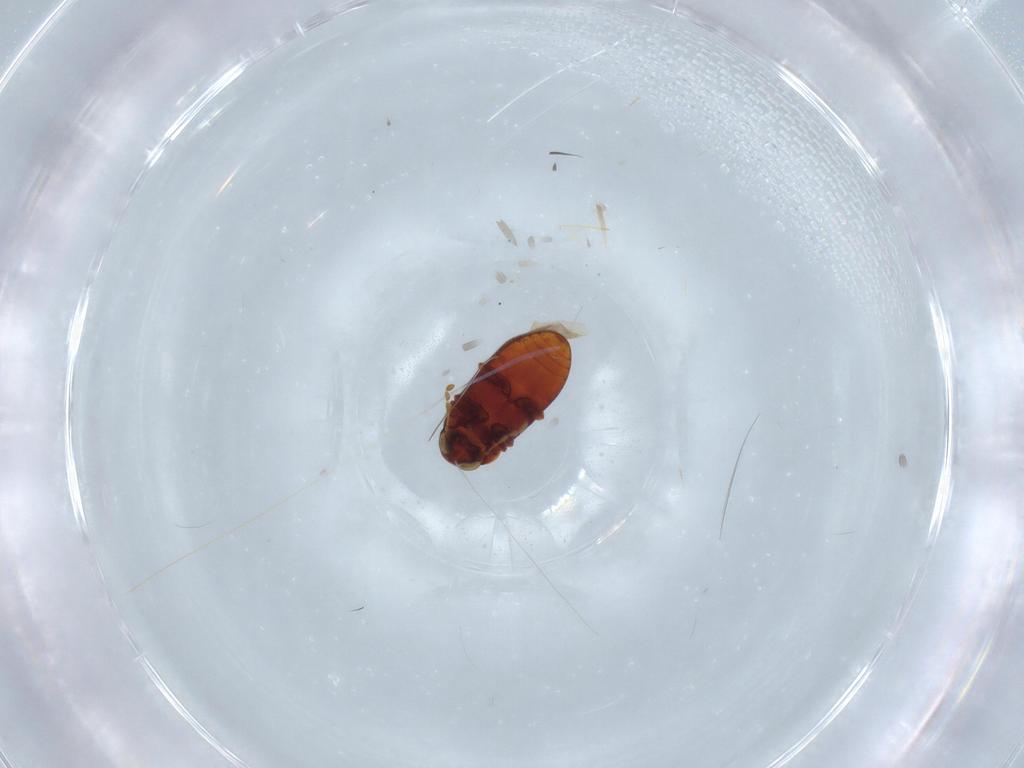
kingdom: Animalia
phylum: Arthropoda
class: Insecta
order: Coleoptera
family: Ptinidae
